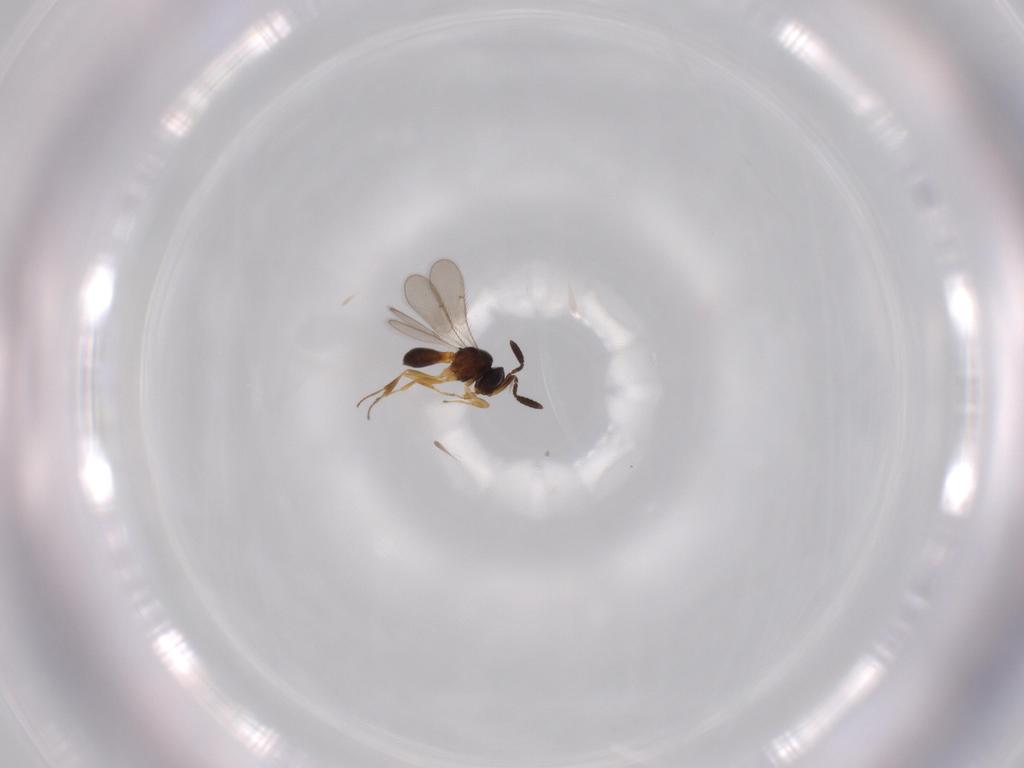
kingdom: Animalia
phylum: Arthropoda
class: Insecta
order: Hymenoptera
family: Scelionidae
